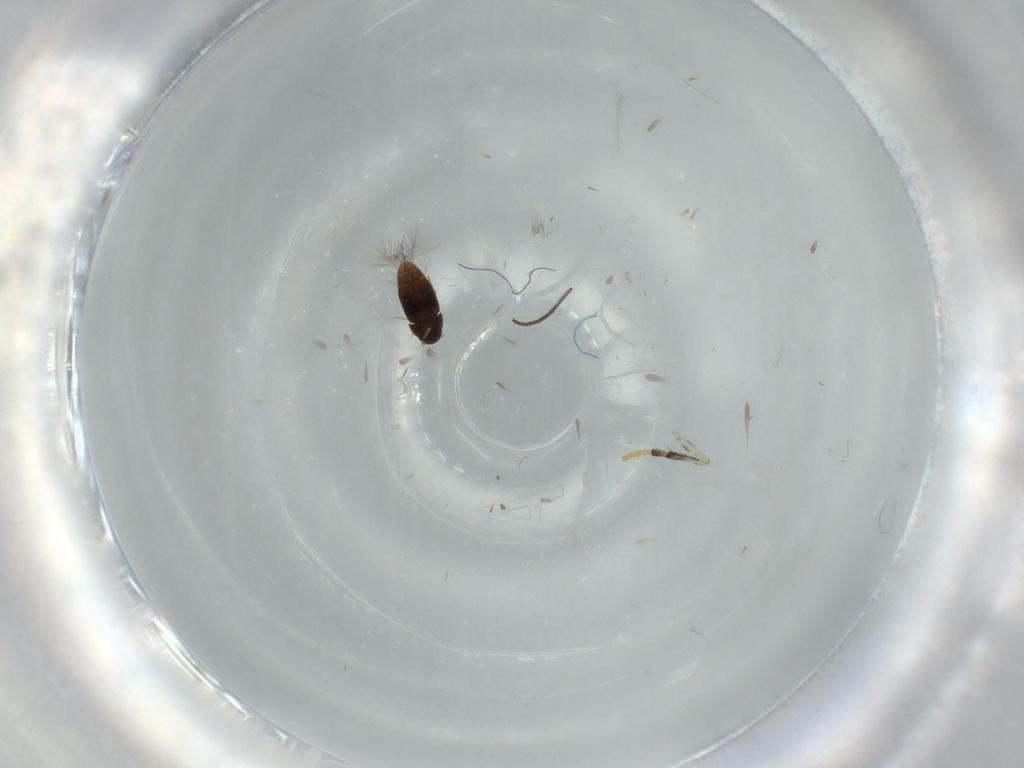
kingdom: Animalia
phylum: Arthropoda
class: Insecta
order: Coleoptera
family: Ptiliidae
